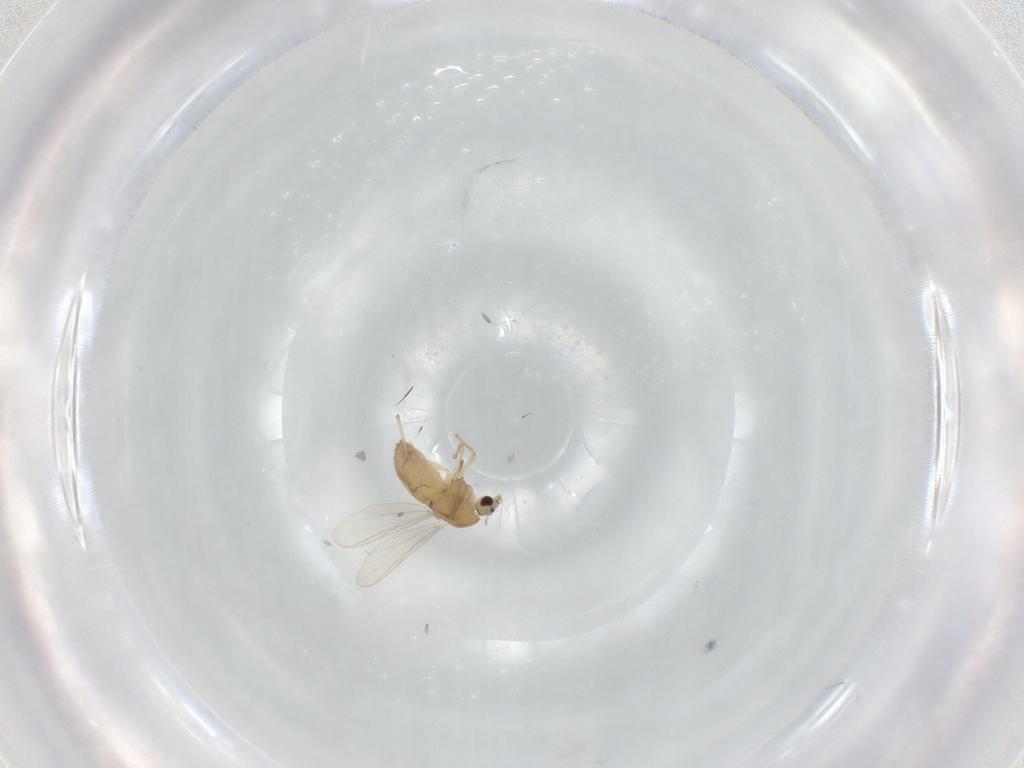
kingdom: Animalia
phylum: Arthropoda
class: Insecta
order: Diptera
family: Chironomidae
